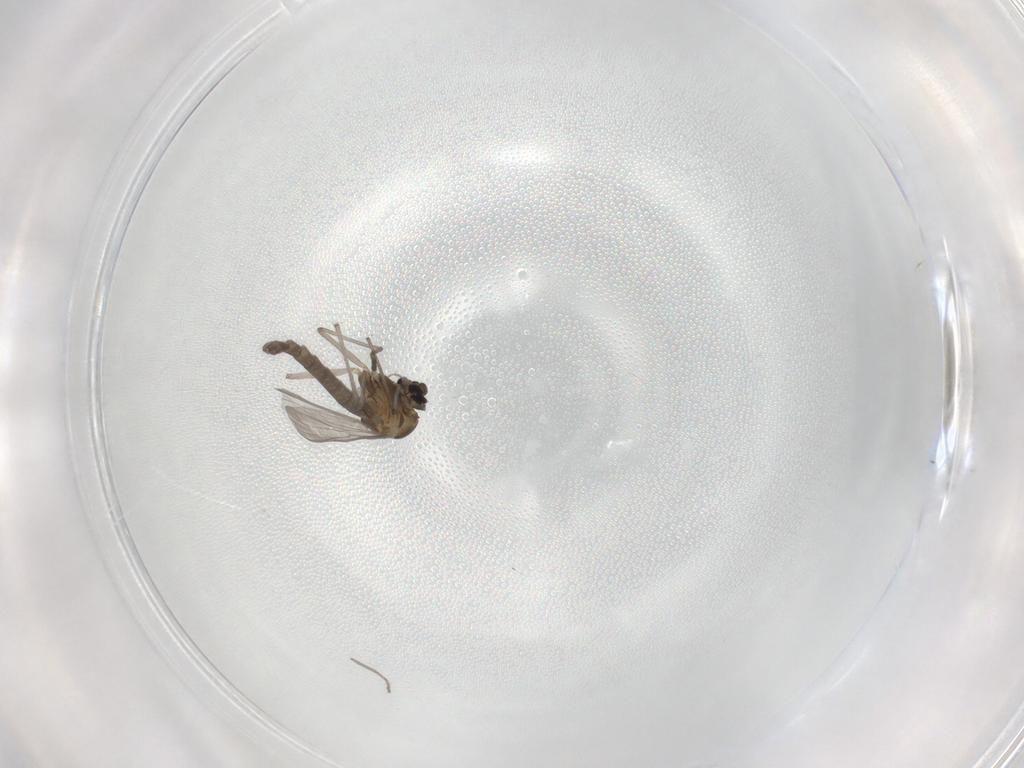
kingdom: Animalia
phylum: Arthropoda
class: Insecta
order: Diptera
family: Chironomidae
